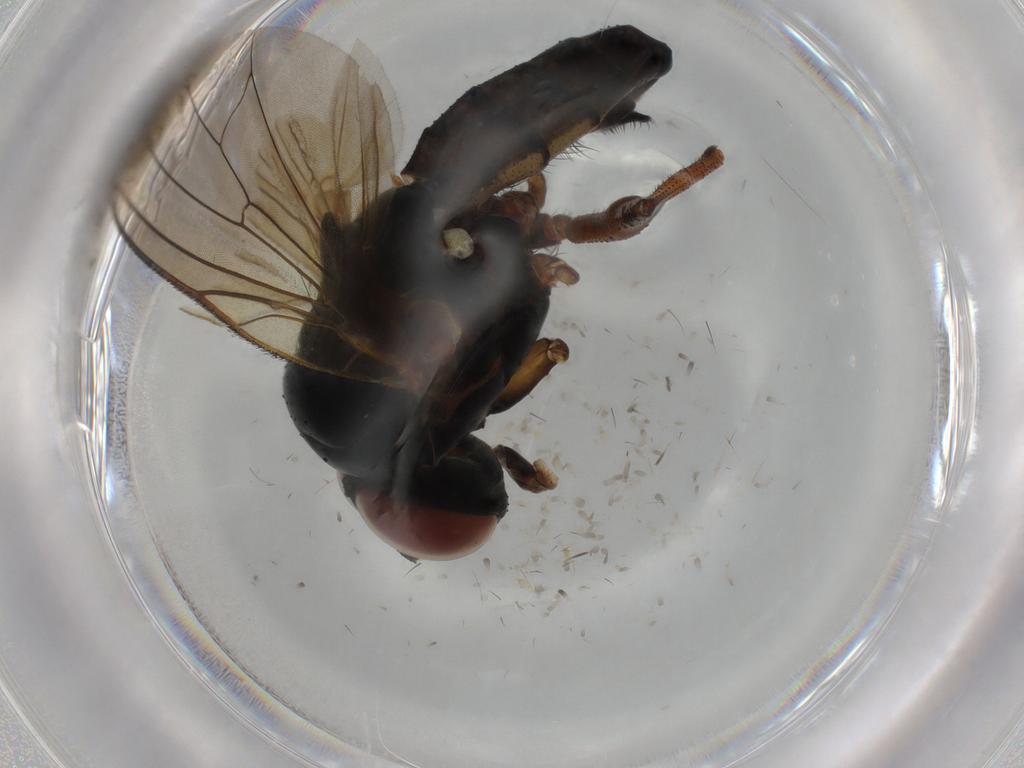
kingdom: Animalia
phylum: Arthropoda
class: Insecta
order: Diptera
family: Anthomyiidae
